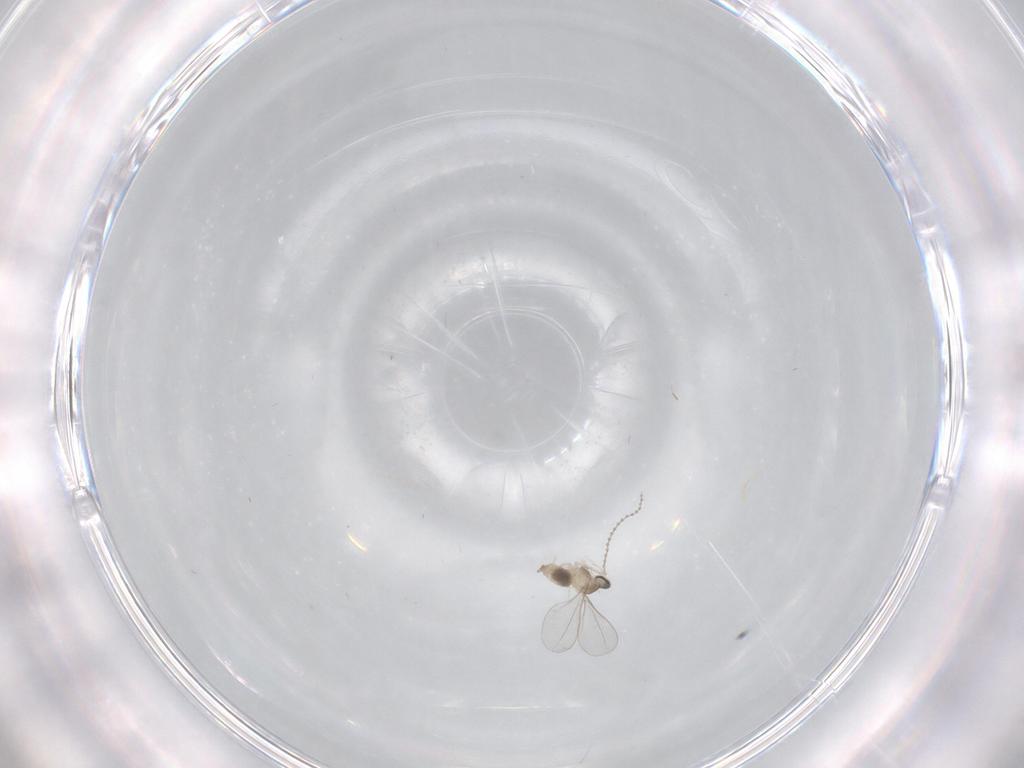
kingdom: Animalia
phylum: Arthropoda
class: Insecta
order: Diptera
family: Cecidomyiidae
